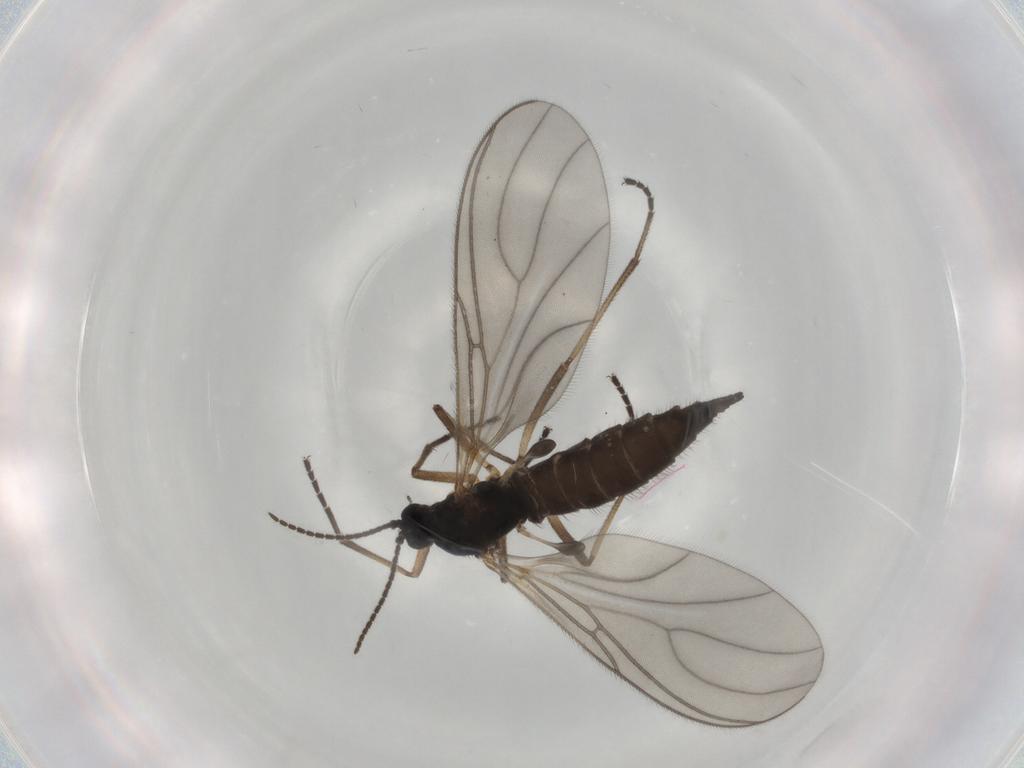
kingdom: Animalia
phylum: Arthropoda
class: Insecta
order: Diptera
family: Sciaridae
